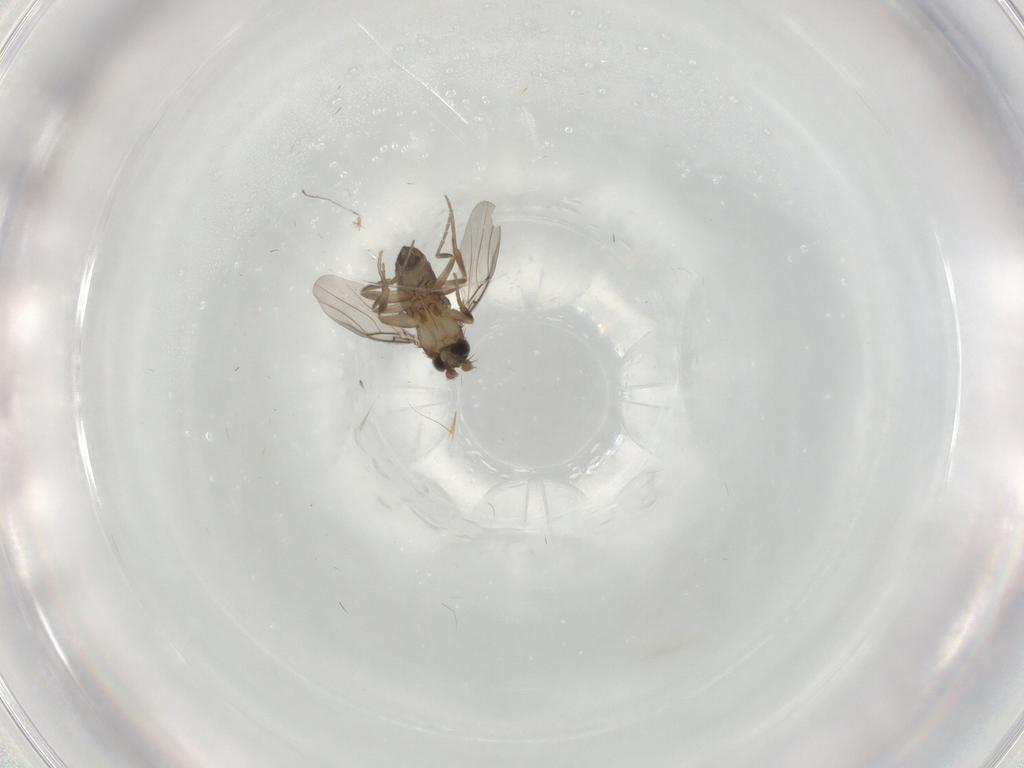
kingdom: Animalia
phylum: Arthropoda
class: Insecta
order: Diptera
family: Phoridae
